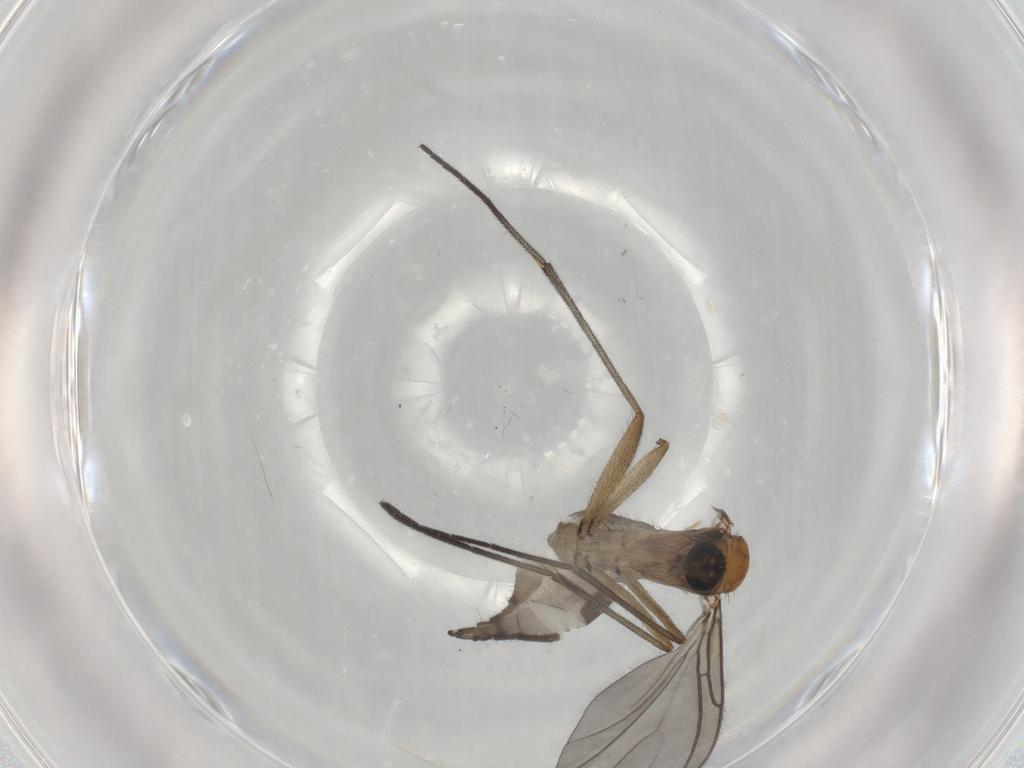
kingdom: Animalia
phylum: Arthropoda
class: Insecta
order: Diptera
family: Sciaridae
